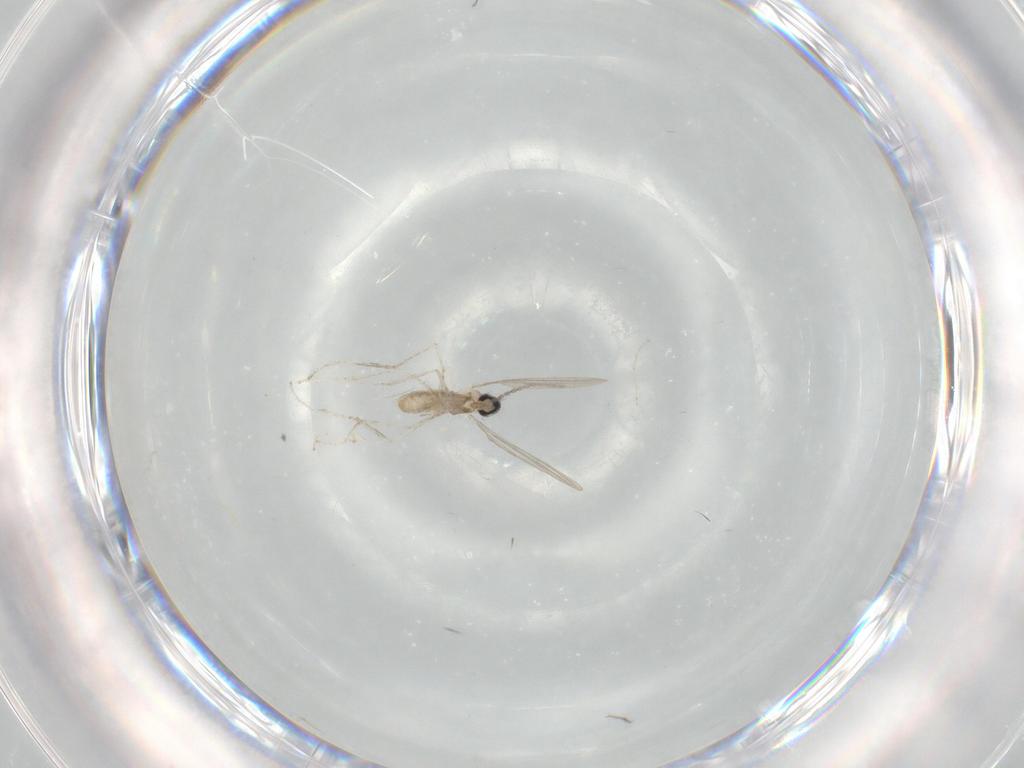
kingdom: Animalia
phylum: Arthropoda
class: Insecta
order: Diptera
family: Cecidomyiidae
